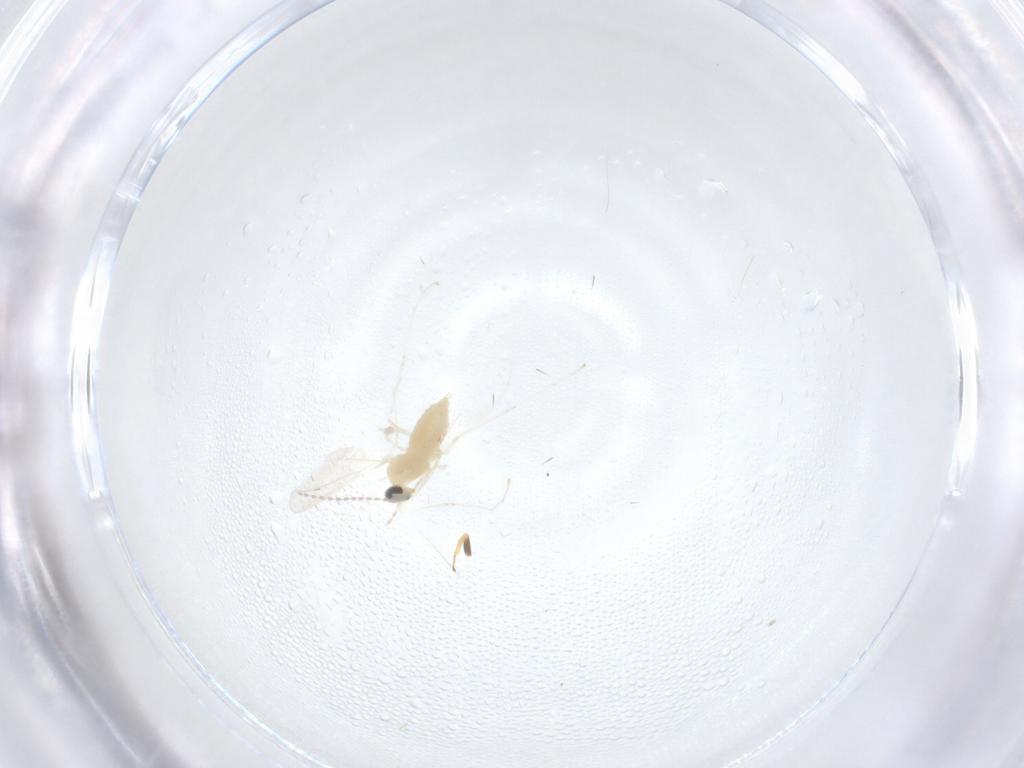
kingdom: Animalia
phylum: Arthropoda
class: Insecta
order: Diptera
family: Cecidomyiidae
